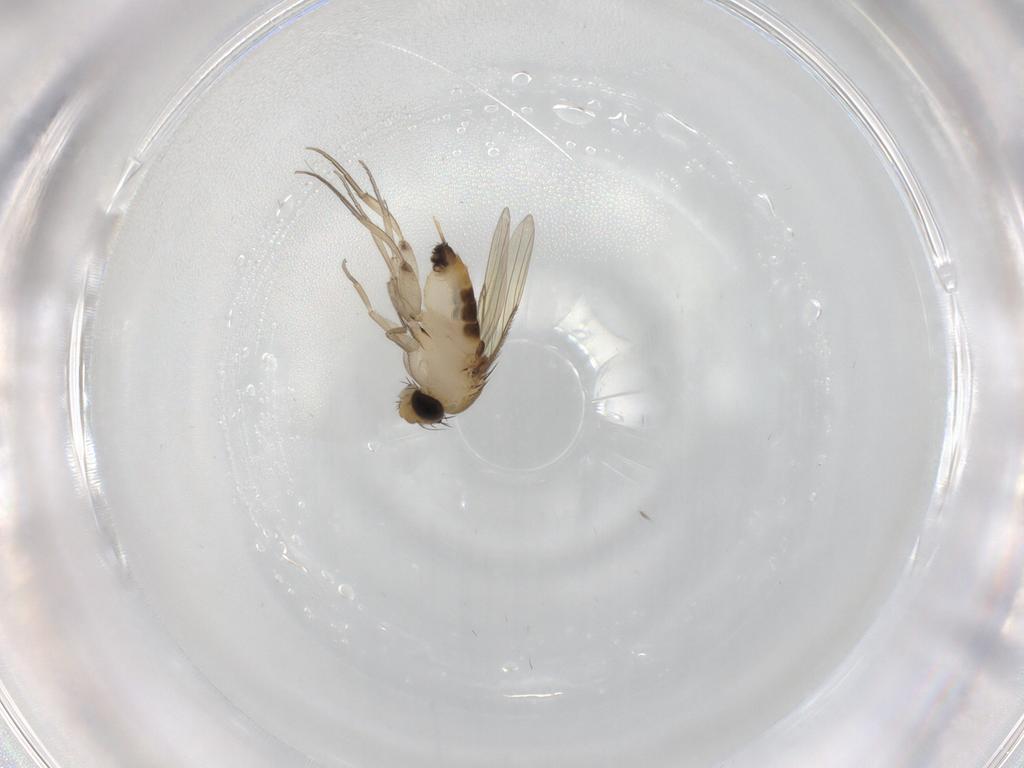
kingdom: Animalia
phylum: Arthropoda
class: Insecta
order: Diptera
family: Phoridae
